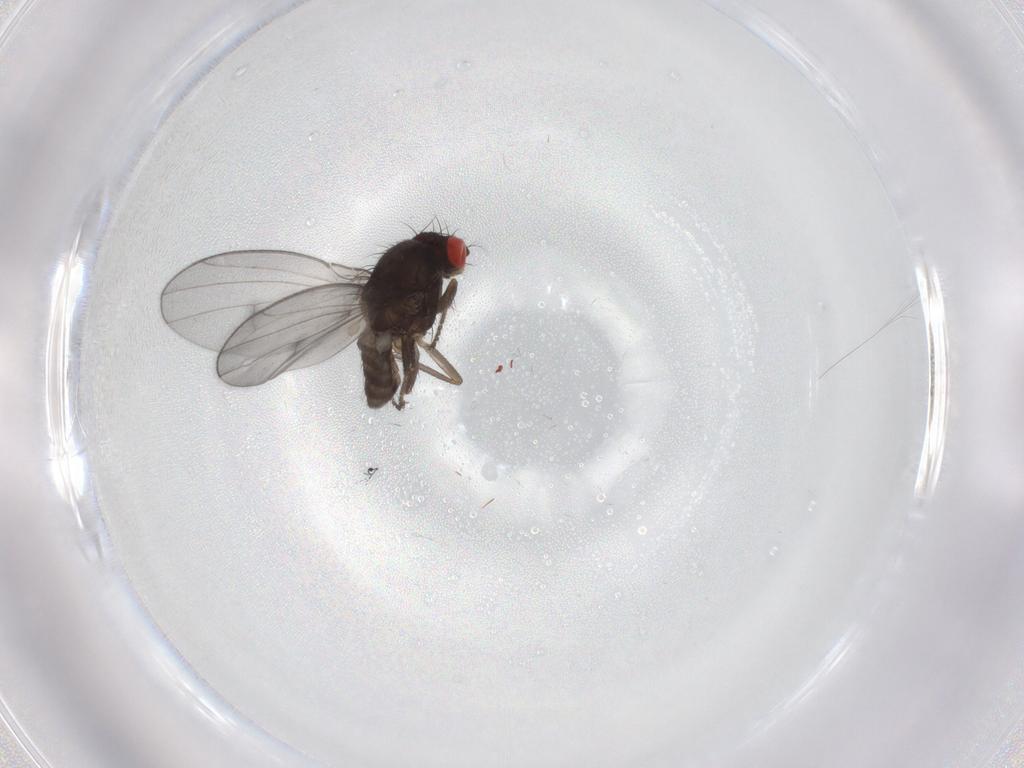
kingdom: Animalia
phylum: Arthropoda
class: Insecta
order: Diptera
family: Drosophilidae
